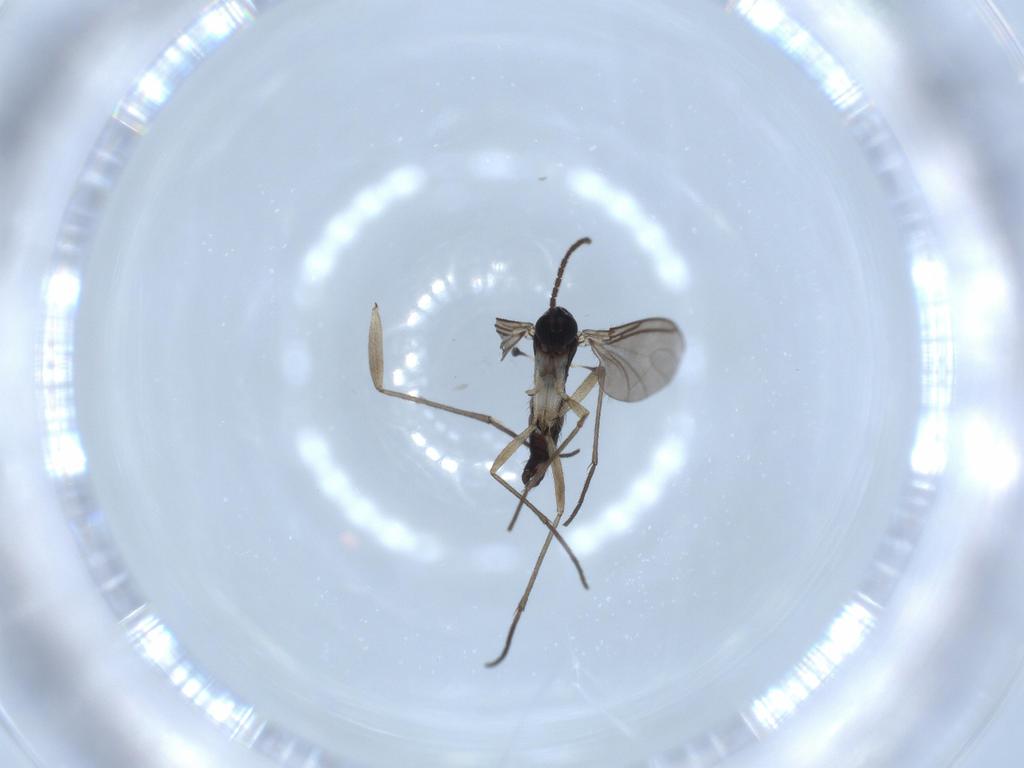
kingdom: Animalia
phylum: Arthropoda
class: Insecta
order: Diptera
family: Sciaridae
